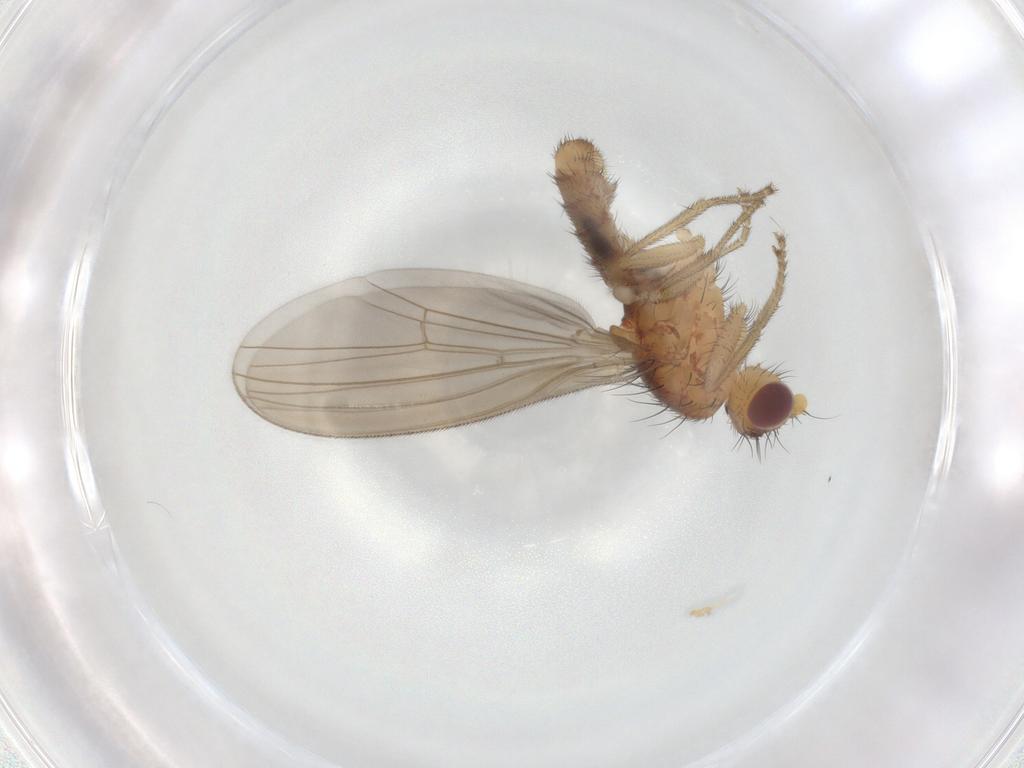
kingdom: Animalia
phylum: Arthropoda
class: Insecta
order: Diptera
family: Natalimyzidae
